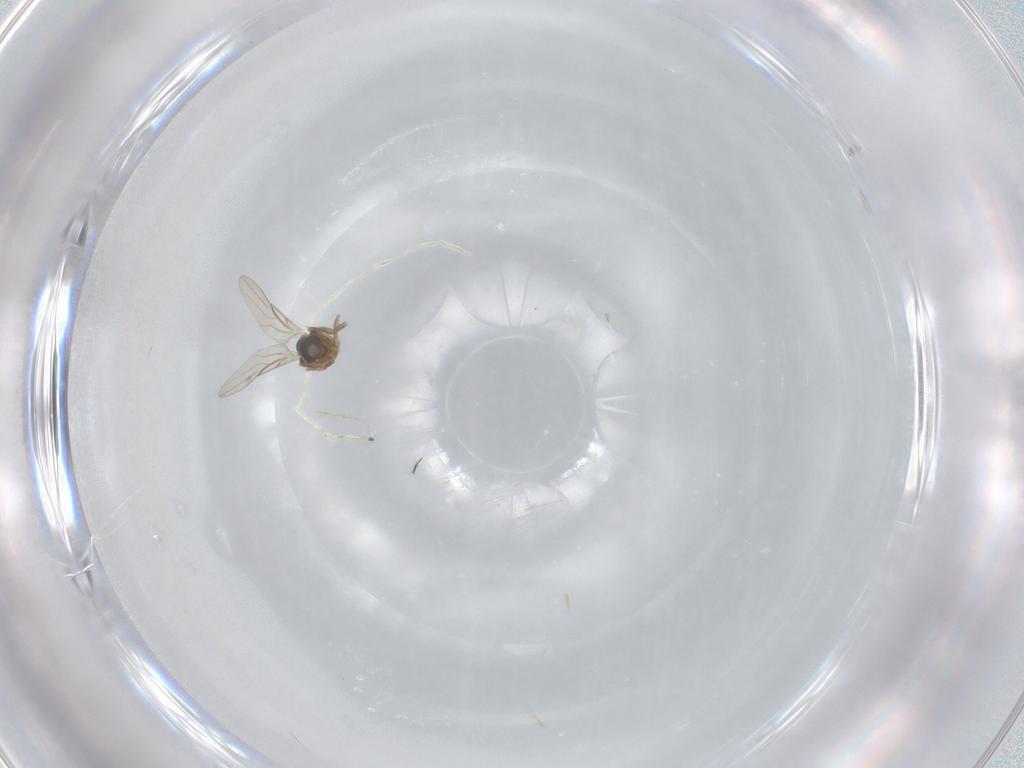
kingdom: Animalia
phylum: Arthropoda
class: Insecta
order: Diptera
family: Phoridae
